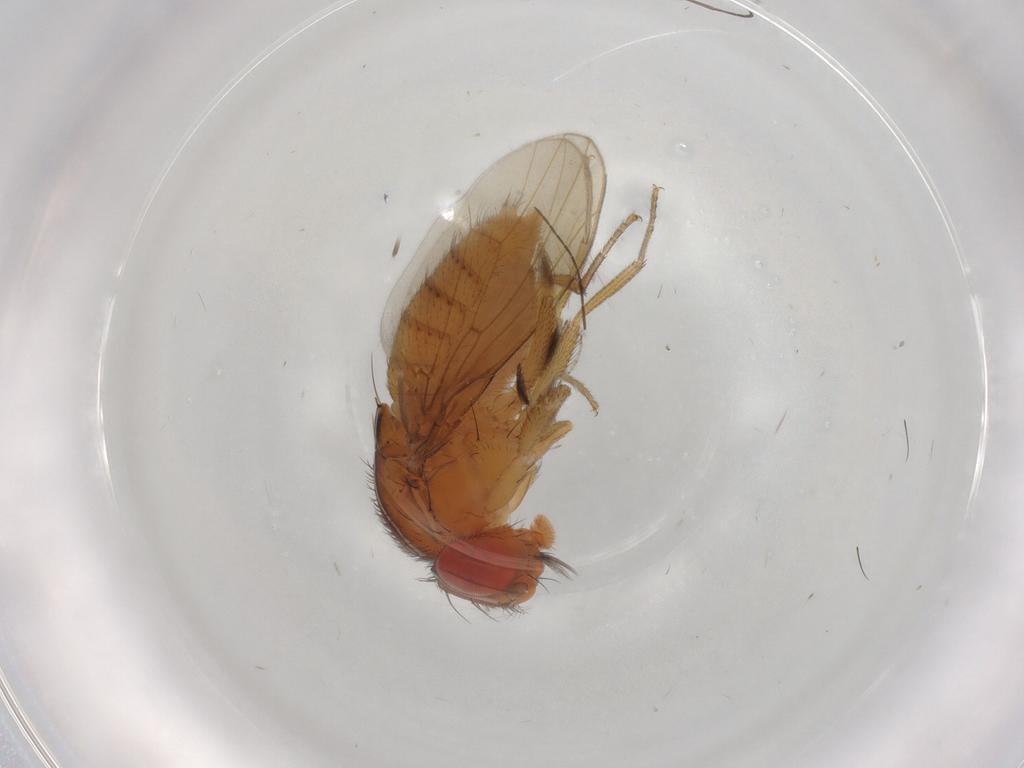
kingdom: Animalia
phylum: Arthropoda
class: Insecta
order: Diptera
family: Drosophilidae
